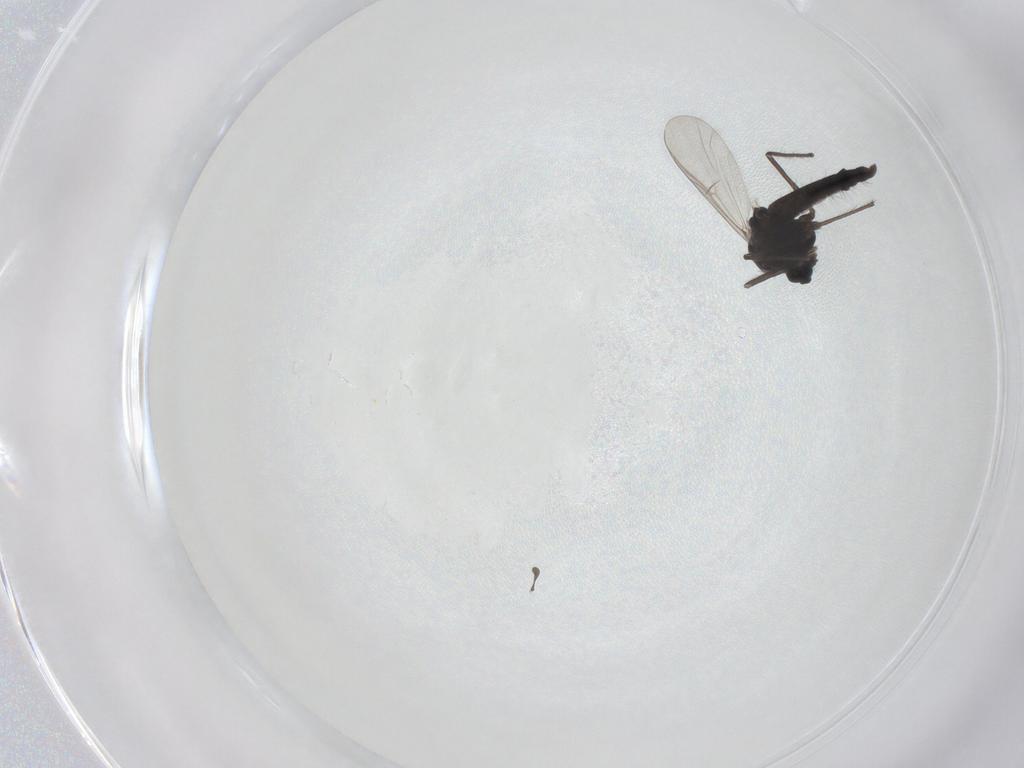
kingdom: Animalia
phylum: Arthropoda
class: Insecta
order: Diptera
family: Chironomidae
